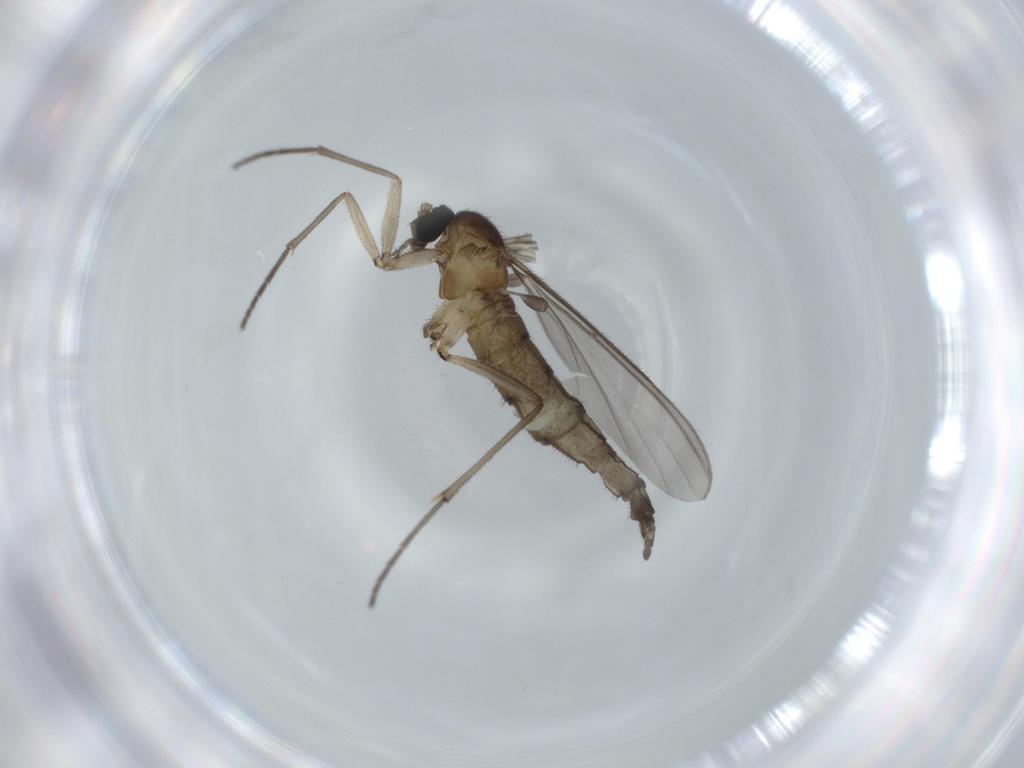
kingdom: Animalia
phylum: Arthropoda
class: Insecta
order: Diptera
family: Sciaridae
